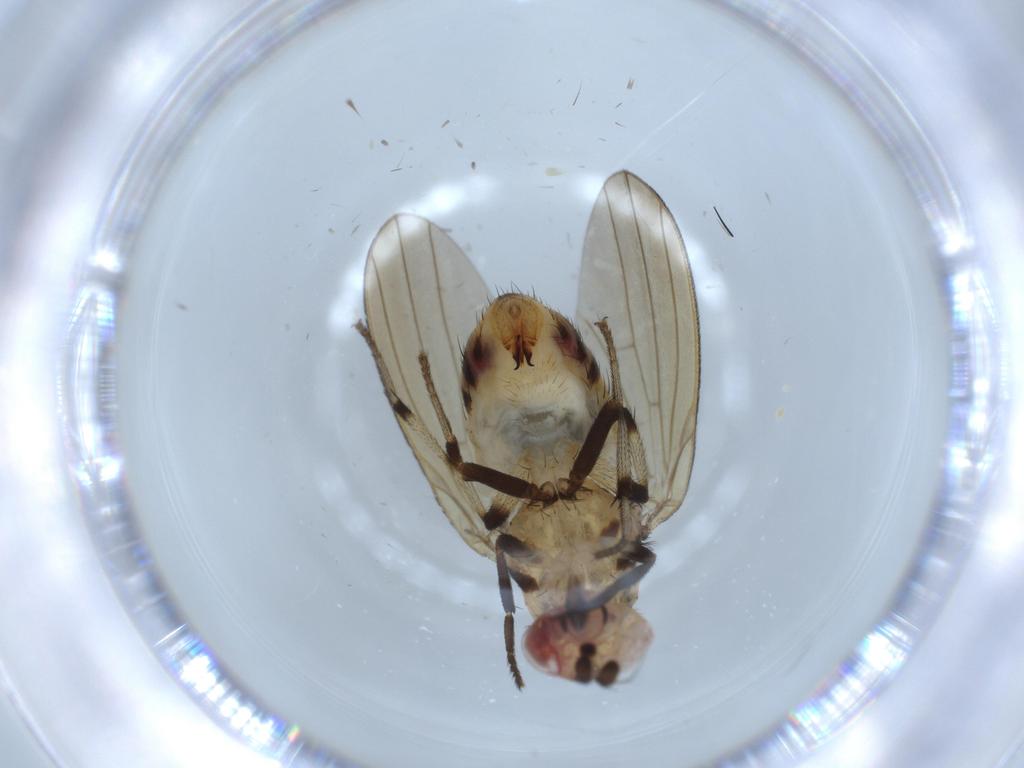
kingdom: Animalia
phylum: Arthropoda
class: Insecta
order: Diptera
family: Lauxaniidae
